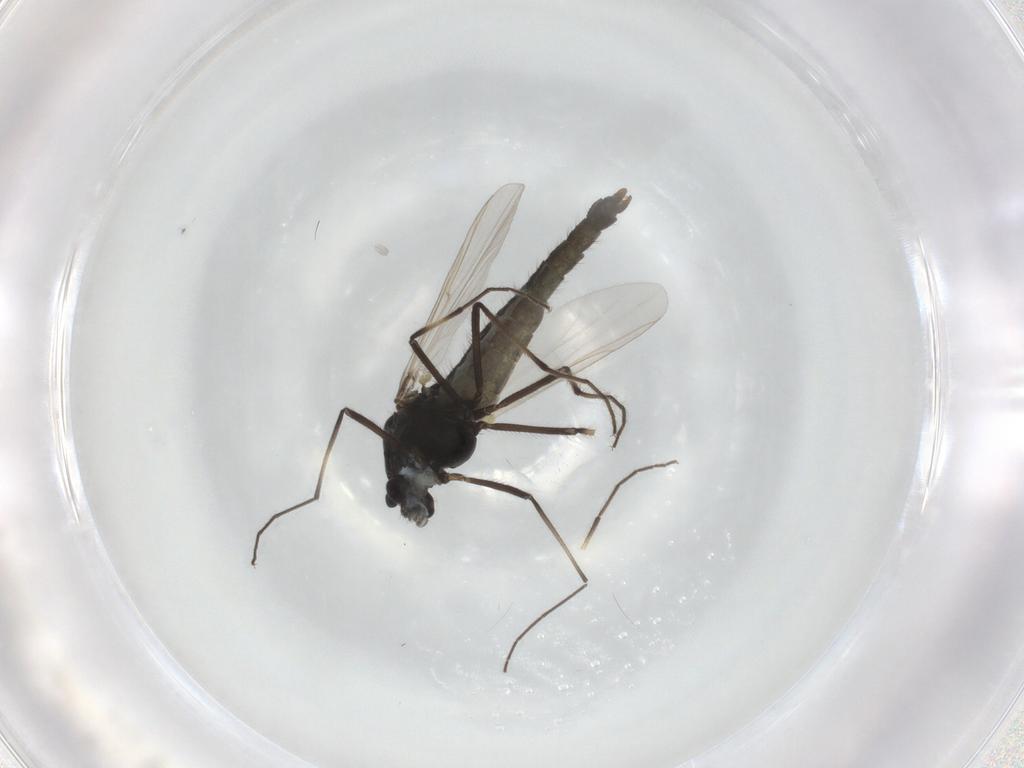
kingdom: Animalia
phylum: Arthropoda
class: Insecta
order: Diptera
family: Chironomidae
